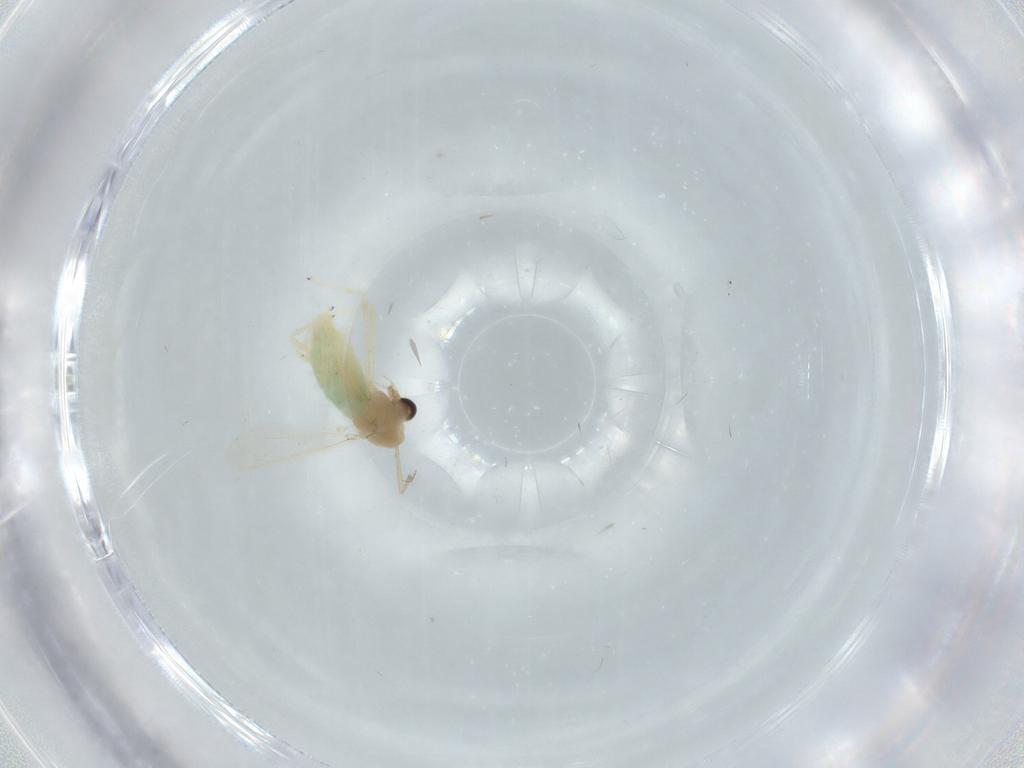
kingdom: Animalia
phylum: Arthropoda
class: Insecta
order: Diptera
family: Chironomidae
